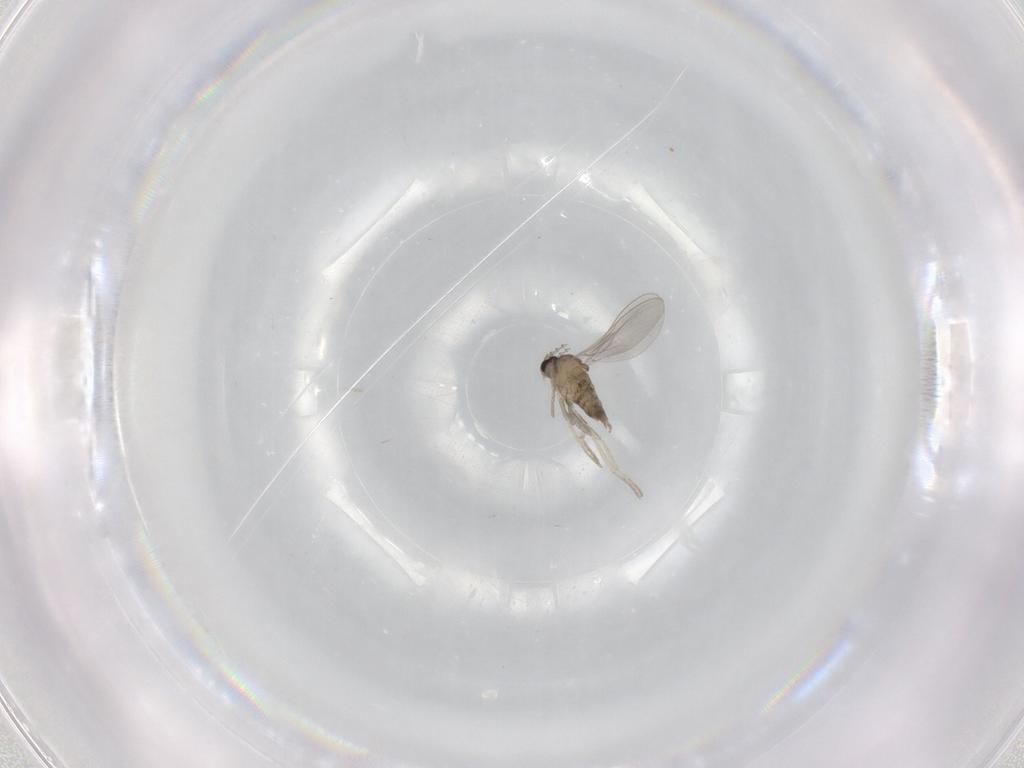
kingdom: Animalia
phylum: Arthropoda
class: Insecta
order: Diptera
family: Cecidomyiidae
